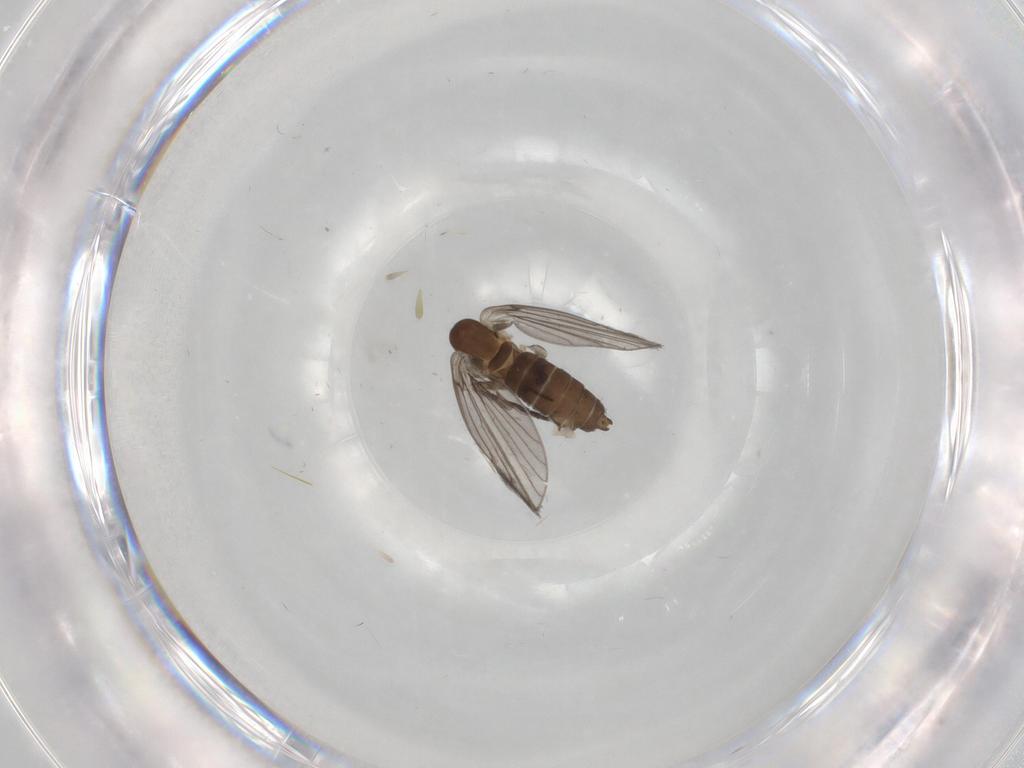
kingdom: Animalia
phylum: Arthropoda
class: Insecta
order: Diptera
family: Psychodidae
